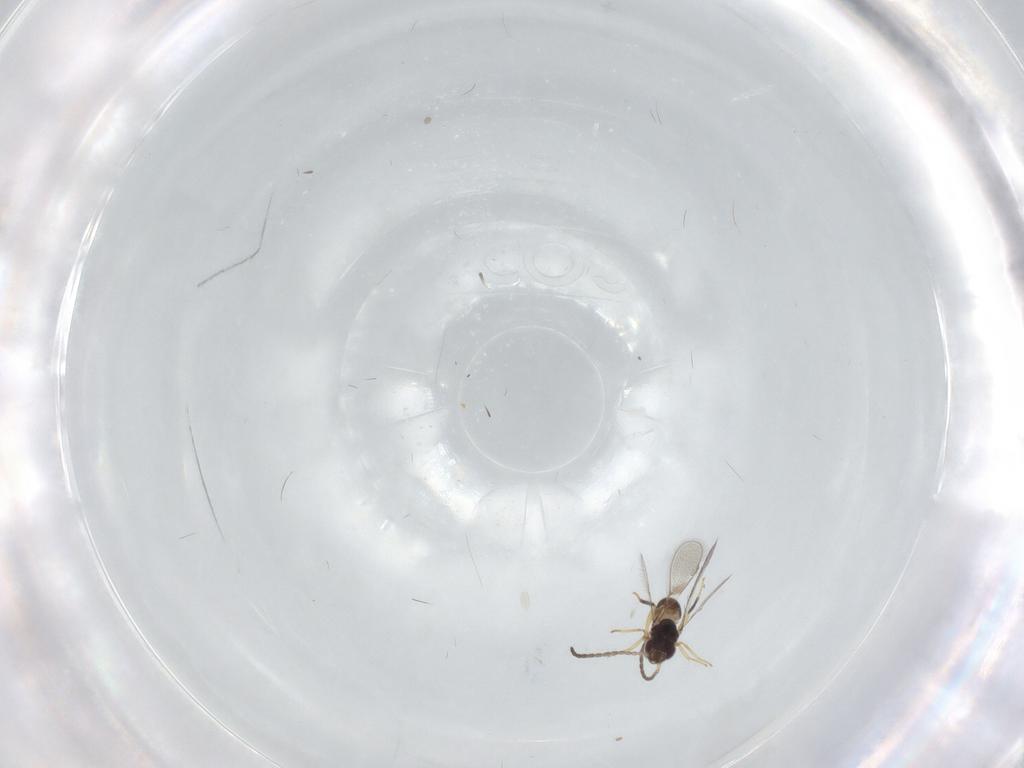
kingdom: Animalia
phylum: Arthropoda
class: Insecta
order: Hymenoptera
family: Mymaridae
